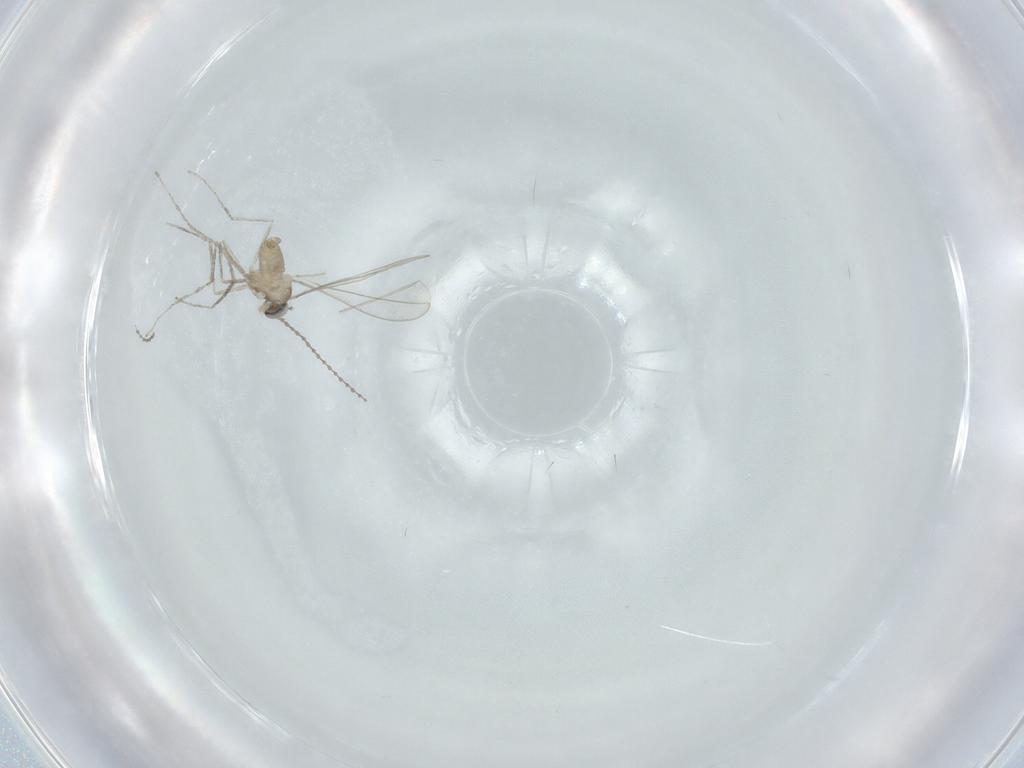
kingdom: Animalia
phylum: Arthropoda
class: Insecta
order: Diptera
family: Cecidomyiidae
